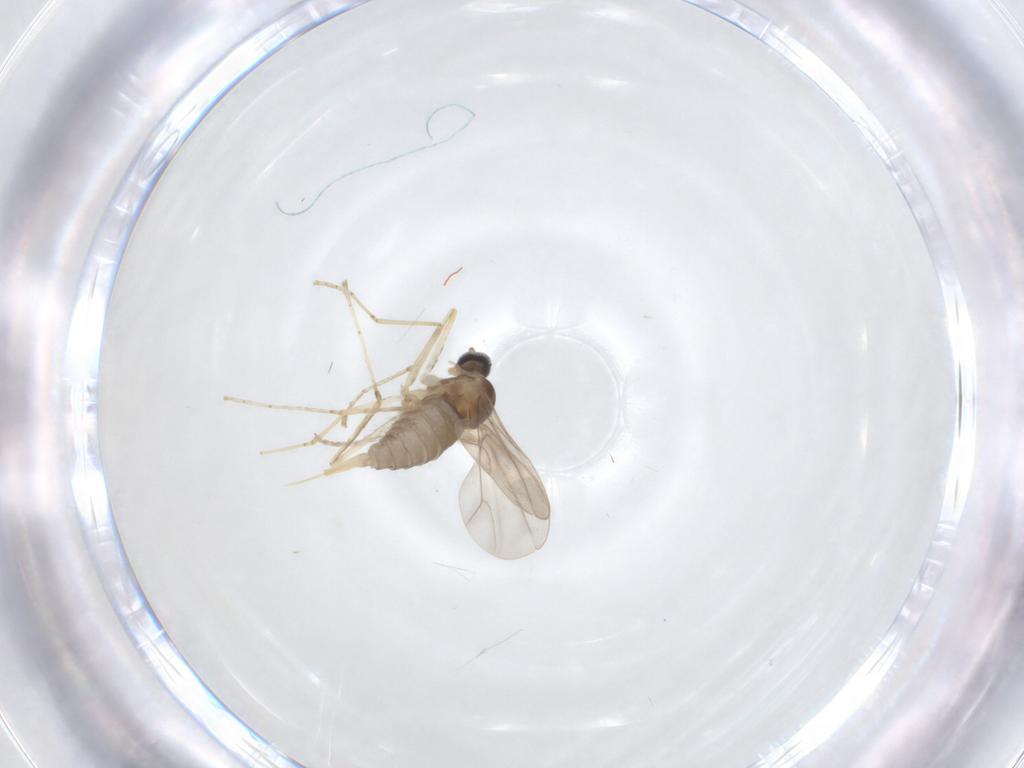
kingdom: Animalia
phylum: Arthropoda
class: Insecta
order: Diptera
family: Cecidomyiidae
